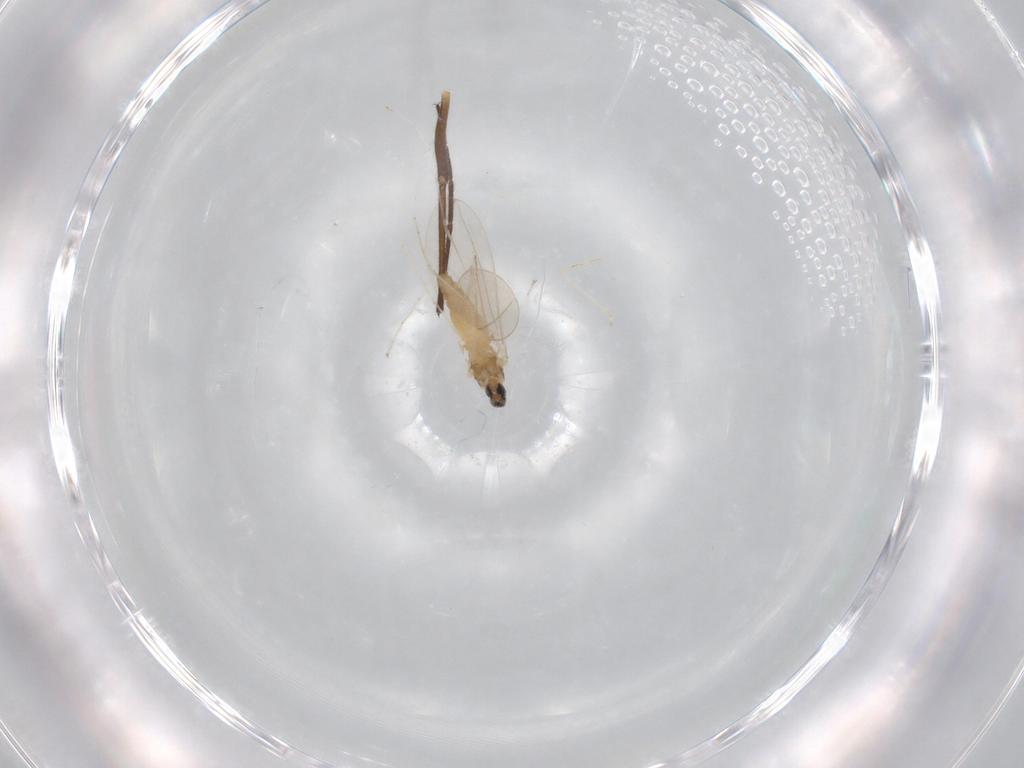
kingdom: Animalia
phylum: Arthropoda
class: Insecta
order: Diptera
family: Cecidomyiidae
